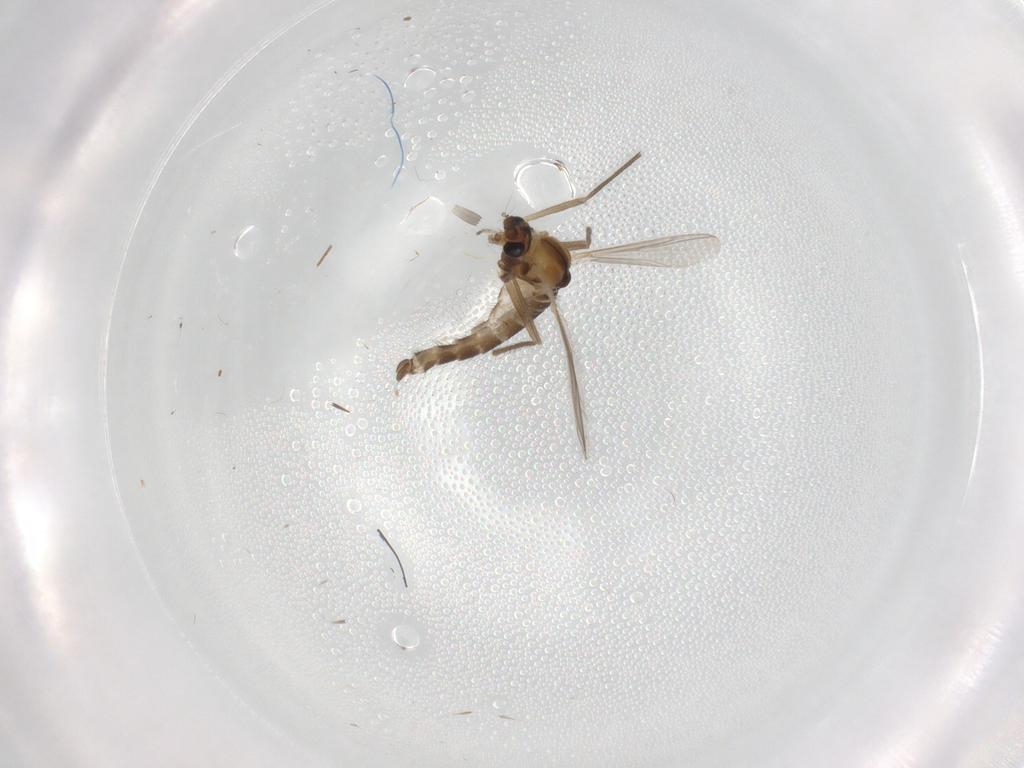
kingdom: Animalia
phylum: Arthropoda
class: Insecta
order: Diptera
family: Chironomidae
